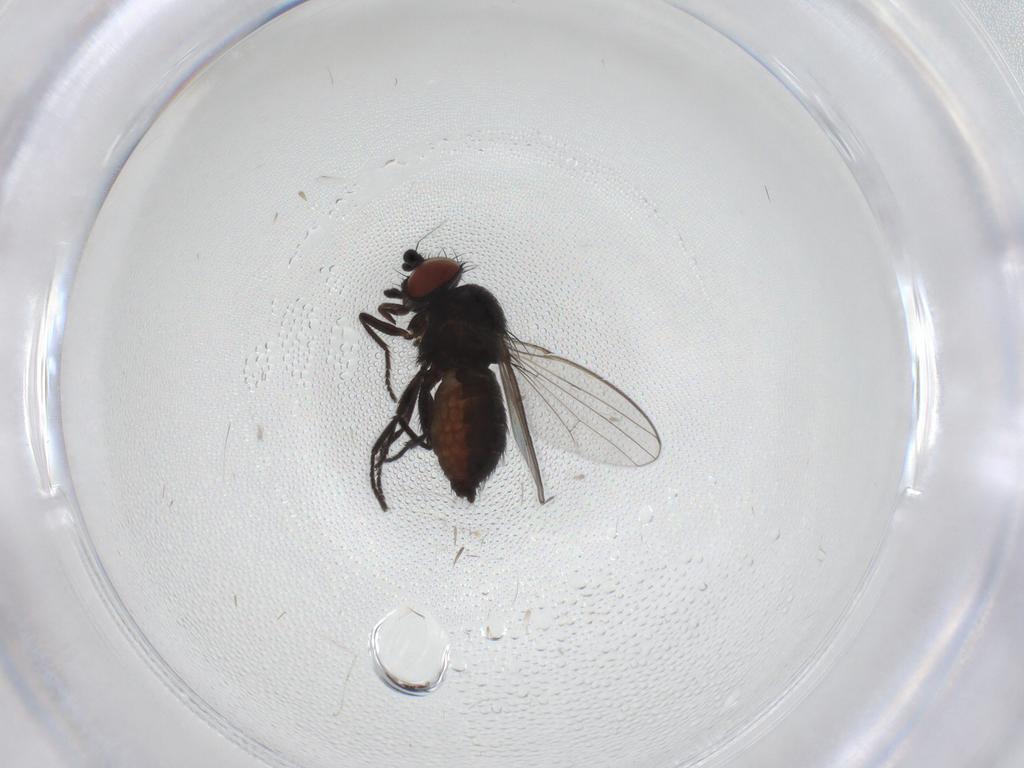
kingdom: Animalia
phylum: Arthropoda
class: Insecta
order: Diptera
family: Milichiidae
